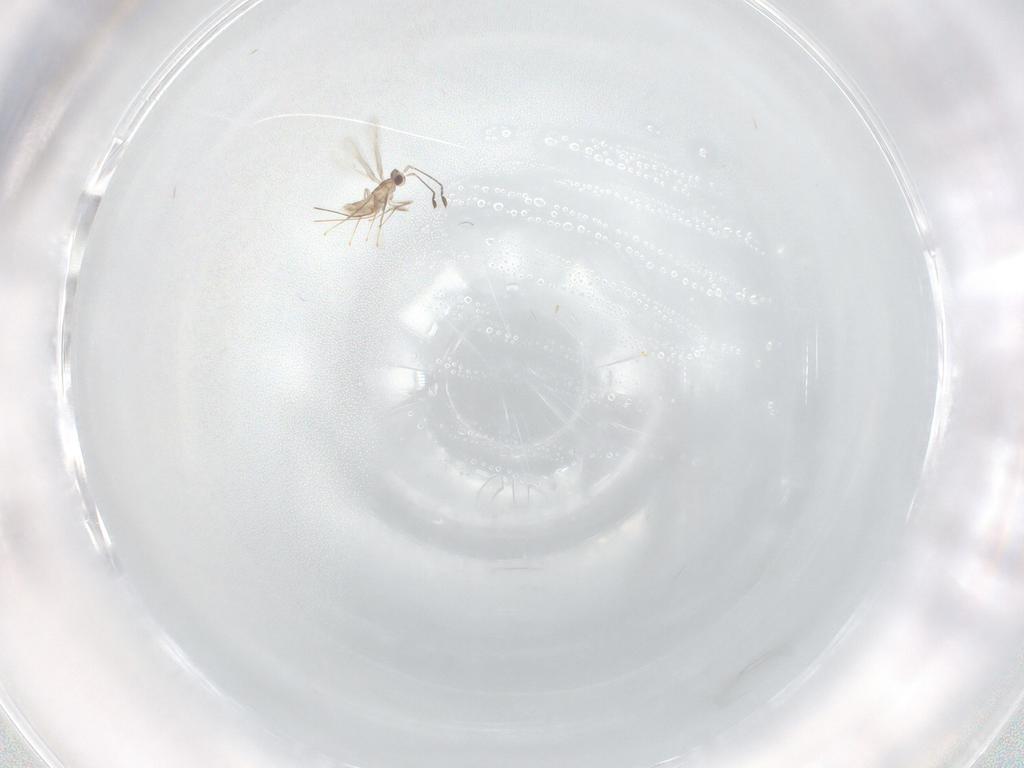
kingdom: Animalia
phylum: Arthropoda
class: Insecta
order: Hymenoptera
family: Mymaridae
